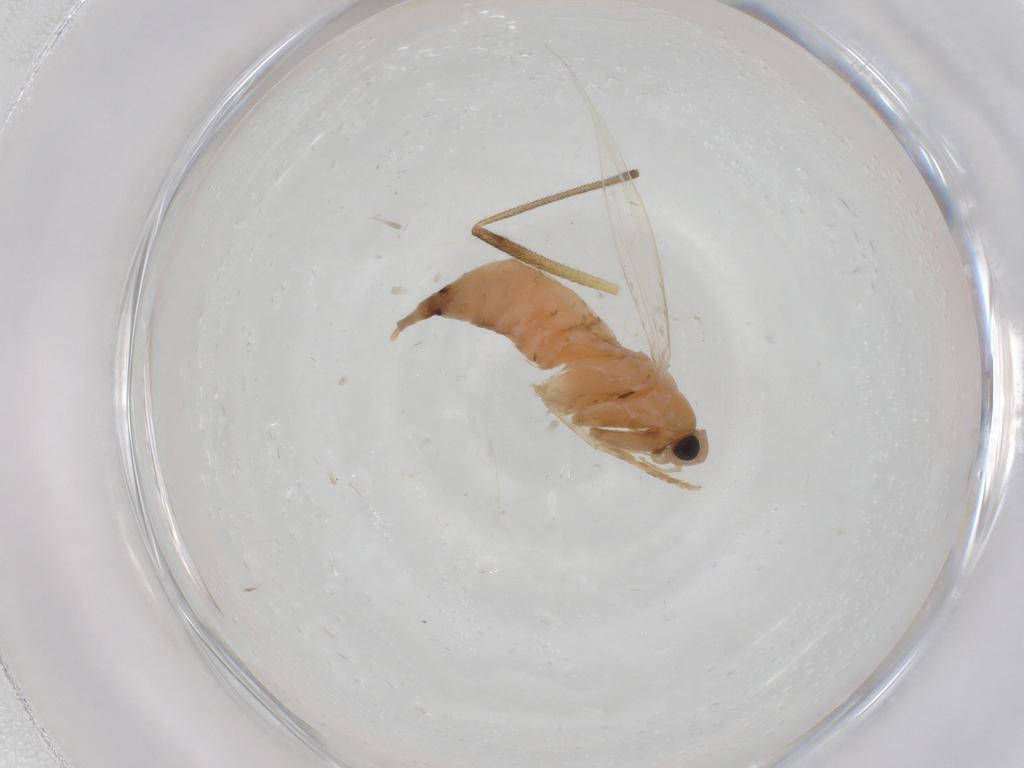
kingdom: Animalia
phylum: Arthropoda
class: Insecta
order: Lepidoptera
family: Tineidae
